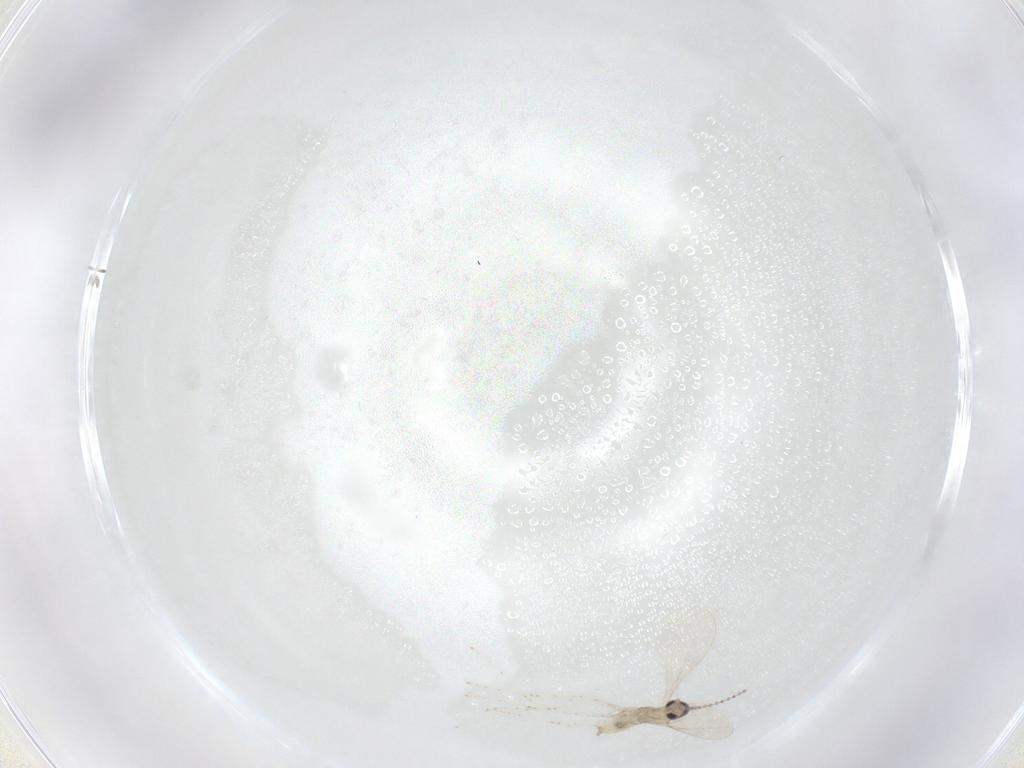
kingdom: Animalia
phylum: Arthropoda
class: Insecta
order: Diptera
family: Cecidomyiidae
